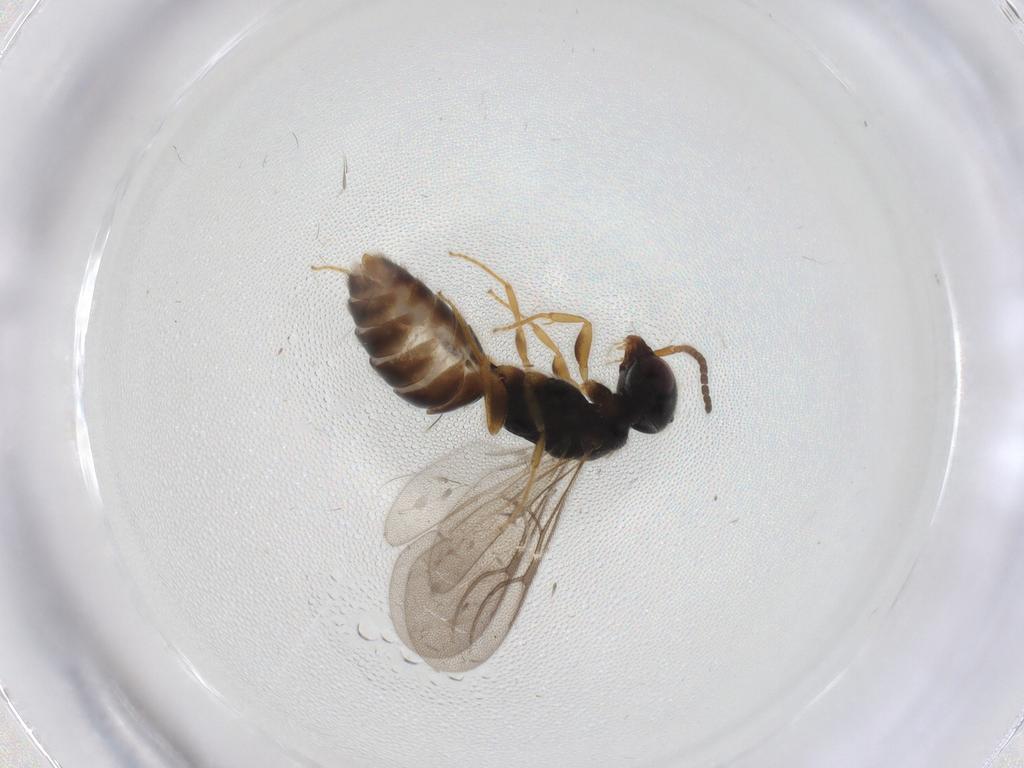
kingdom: Animalia
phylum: Arthropoda
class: Insecta
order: Hymenoptera
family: Bethylidae
